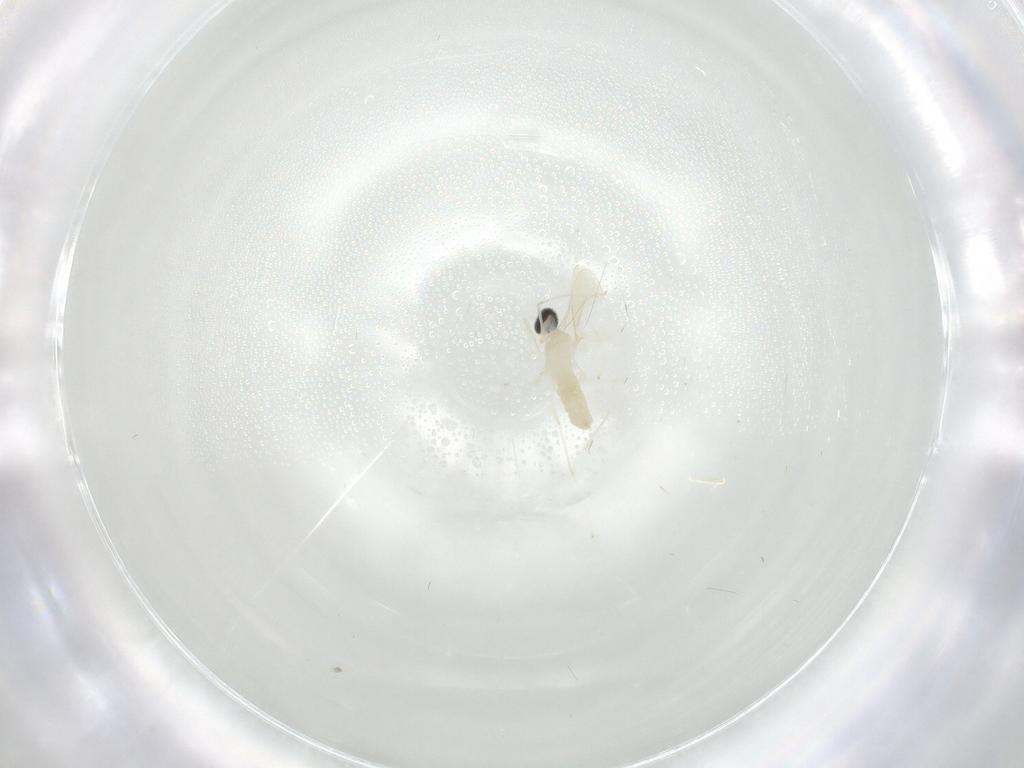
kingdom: Animalia
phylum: Arthropoda
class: Insecta
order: Diptera
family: Cecidomyiidae
